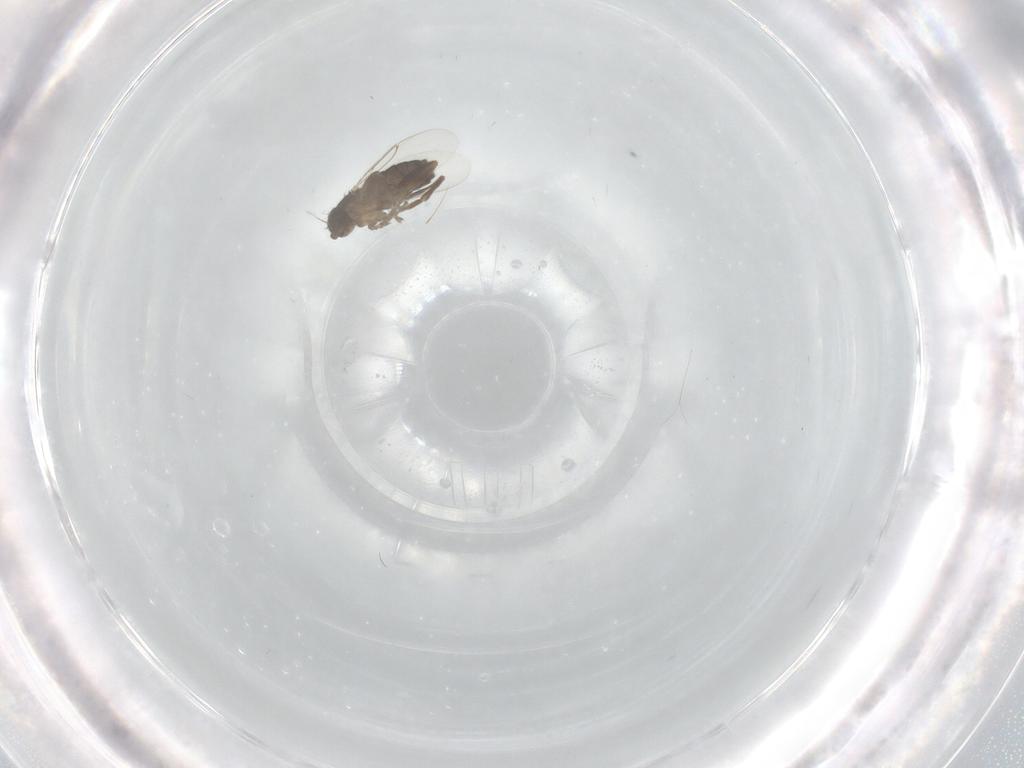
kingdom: Animalia
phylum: Arthropoda
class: Insecta
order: Diptera
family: Phoridae
